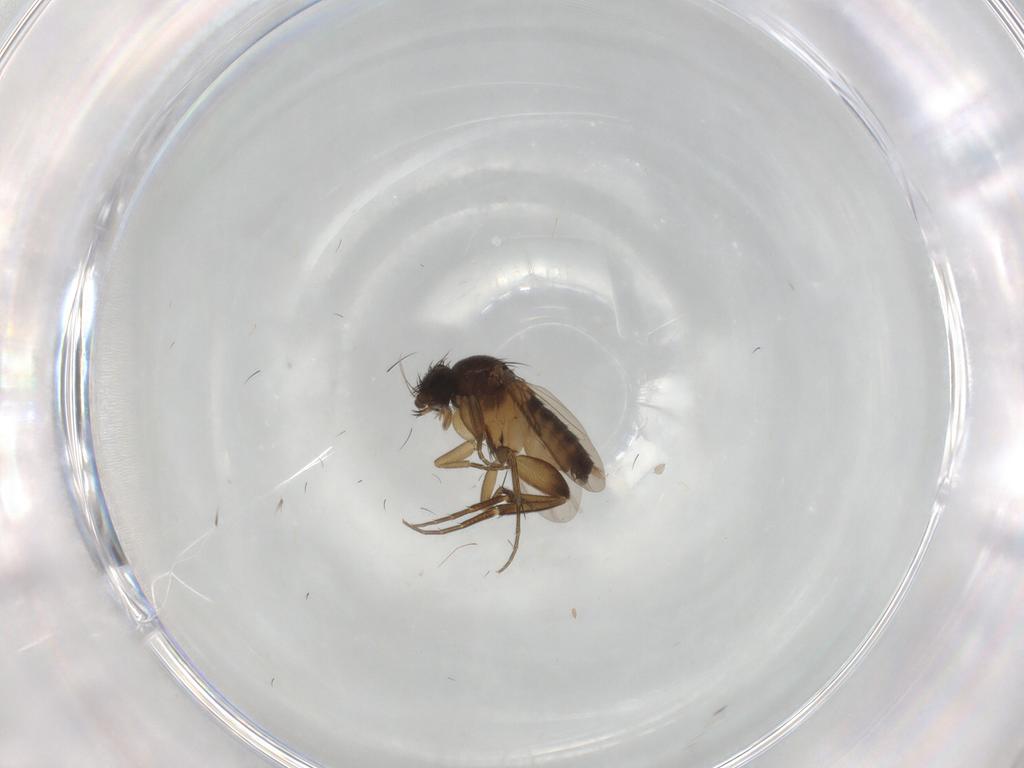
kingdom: Animalia
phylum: Arthropoda
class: Insecta
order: Diptera
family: Phoridae
